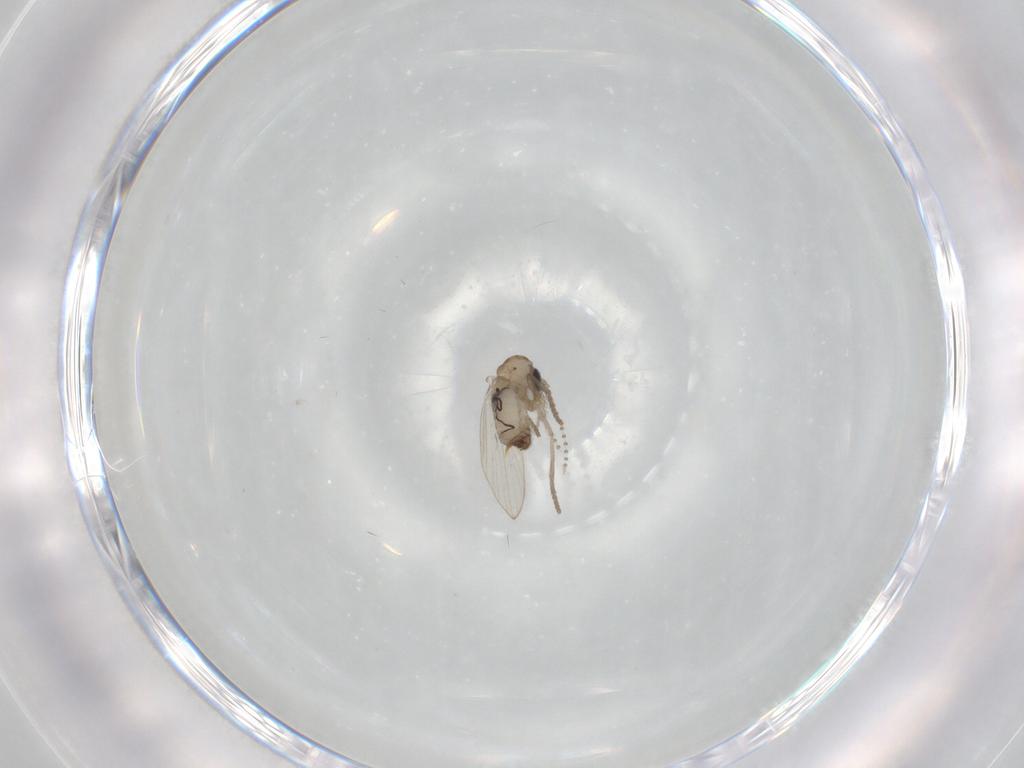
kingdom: Animalia
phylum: Arthropoda
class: Insecta
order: Diptera
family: Psychodidae
